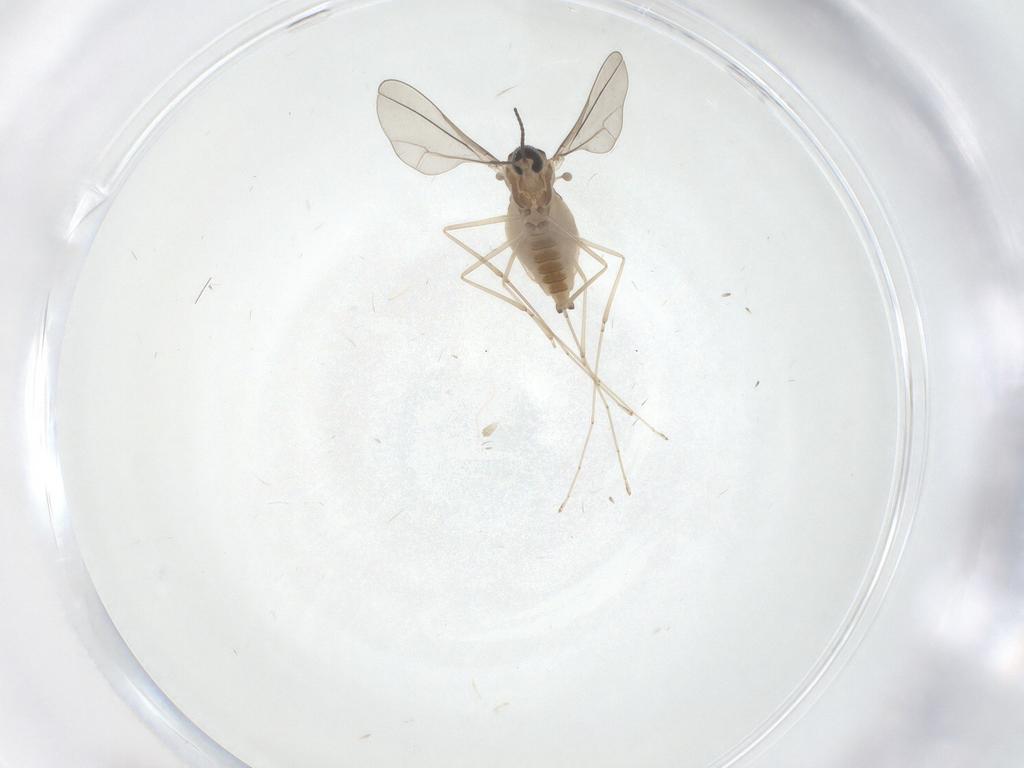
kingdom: Animalia
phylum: Arthropoda
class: Insecta
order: Diptera
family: Cecidomyiidae
